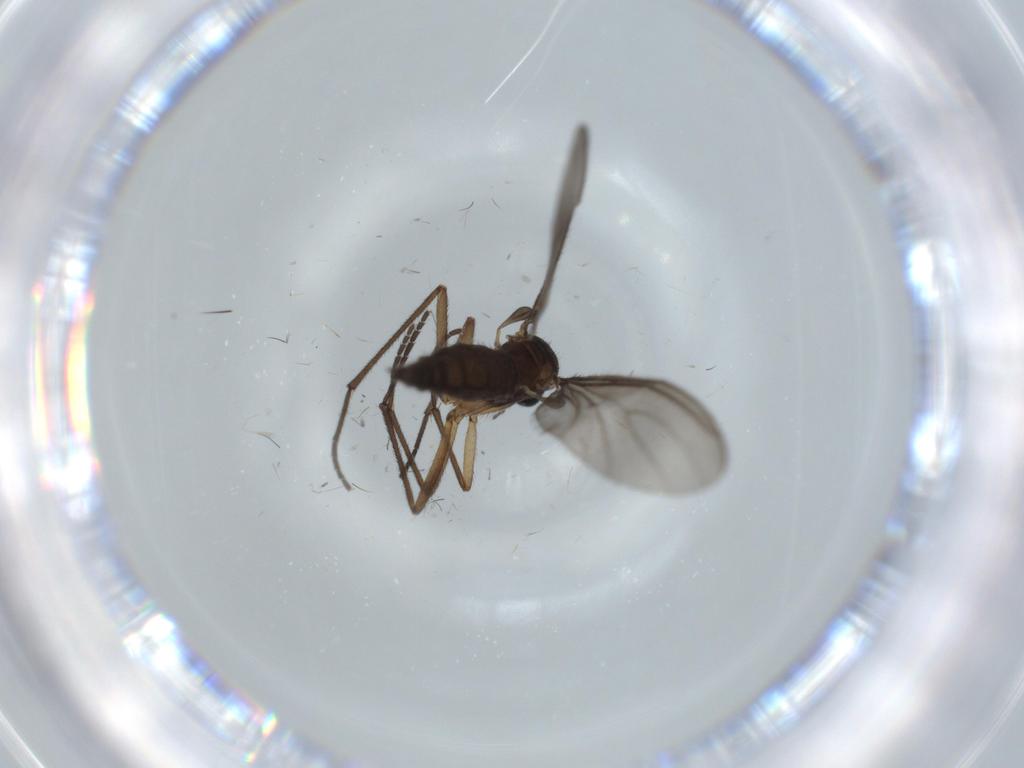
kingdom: Animalia
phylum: Arthropoda
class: Insecta
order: Diptera
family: Sciaridae
